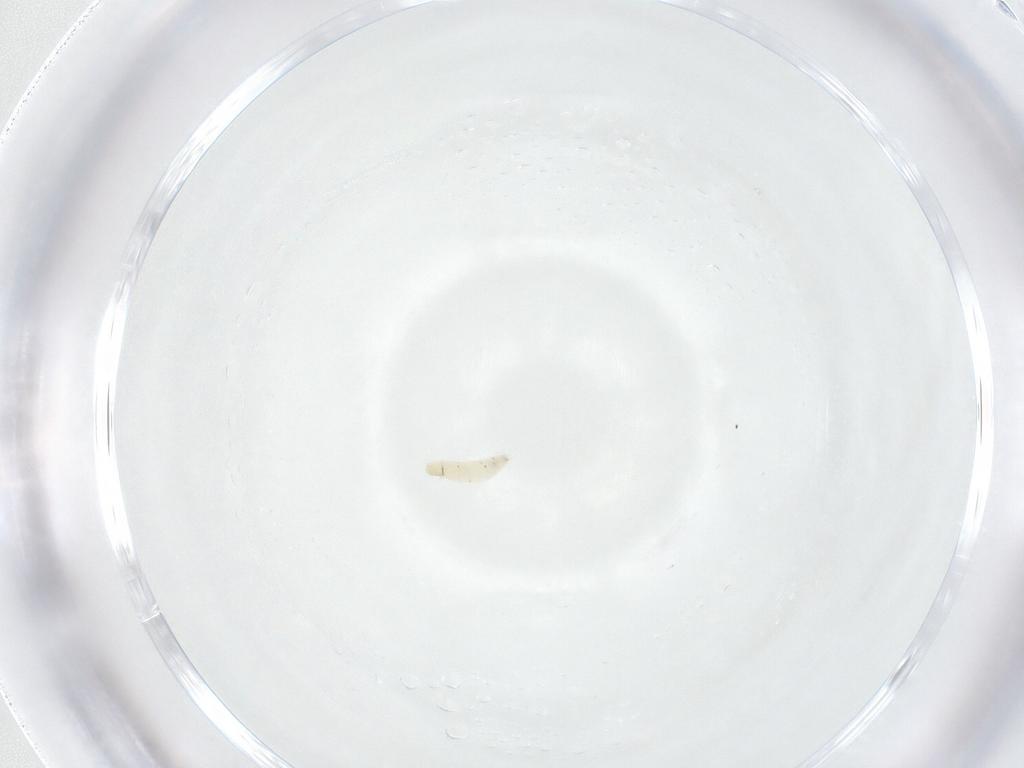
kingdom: Animalia
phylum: Arthropoda
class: Insecta
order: Diptera
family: Sarcophagidae
